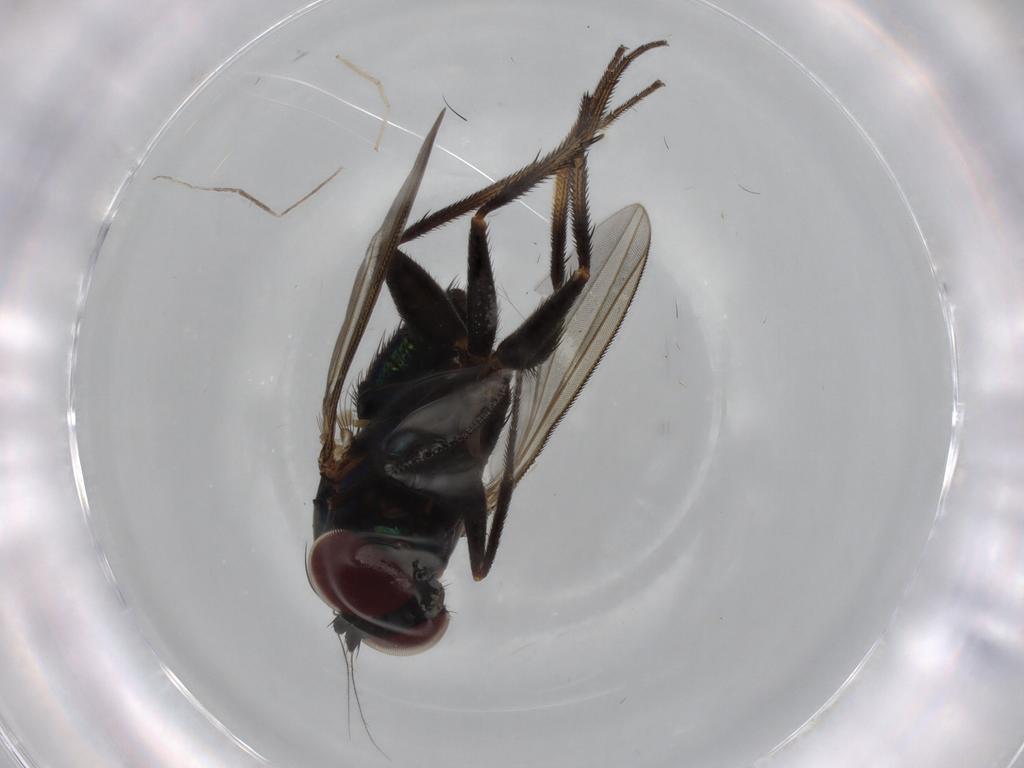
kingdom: Animalia
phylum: Arthropoda
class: Insecta
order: Diptera
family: Dolichopodidae
